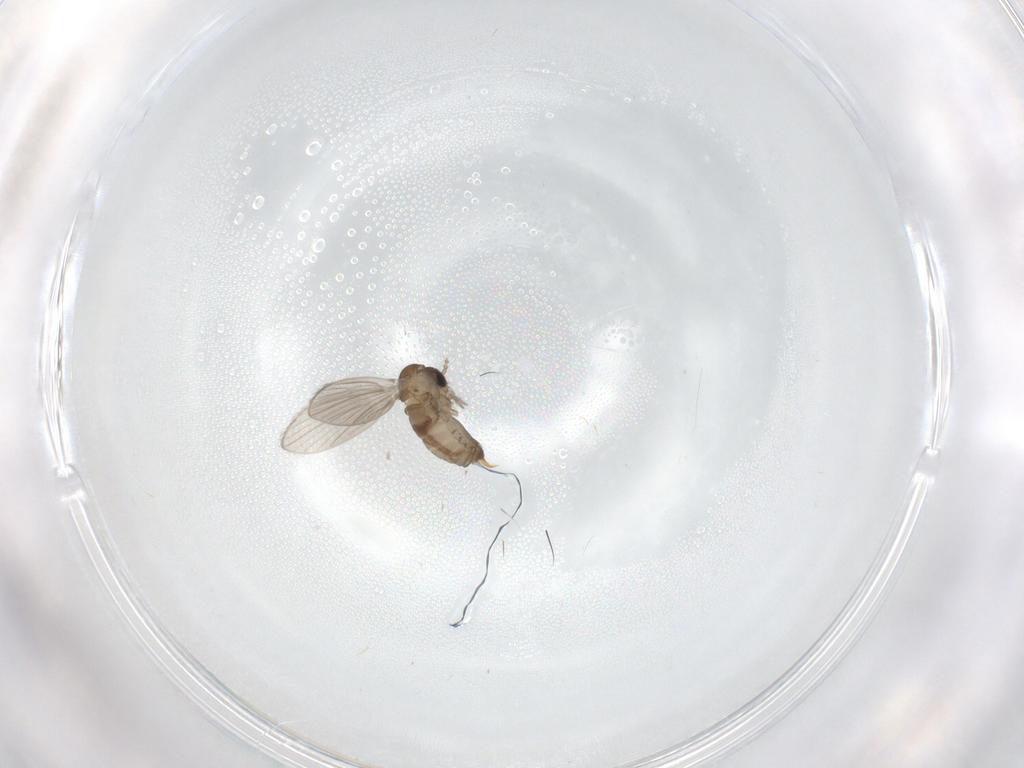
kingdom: Animalia
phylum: Arthropoda
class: Insecta
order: Diptera
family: Psychodidae
